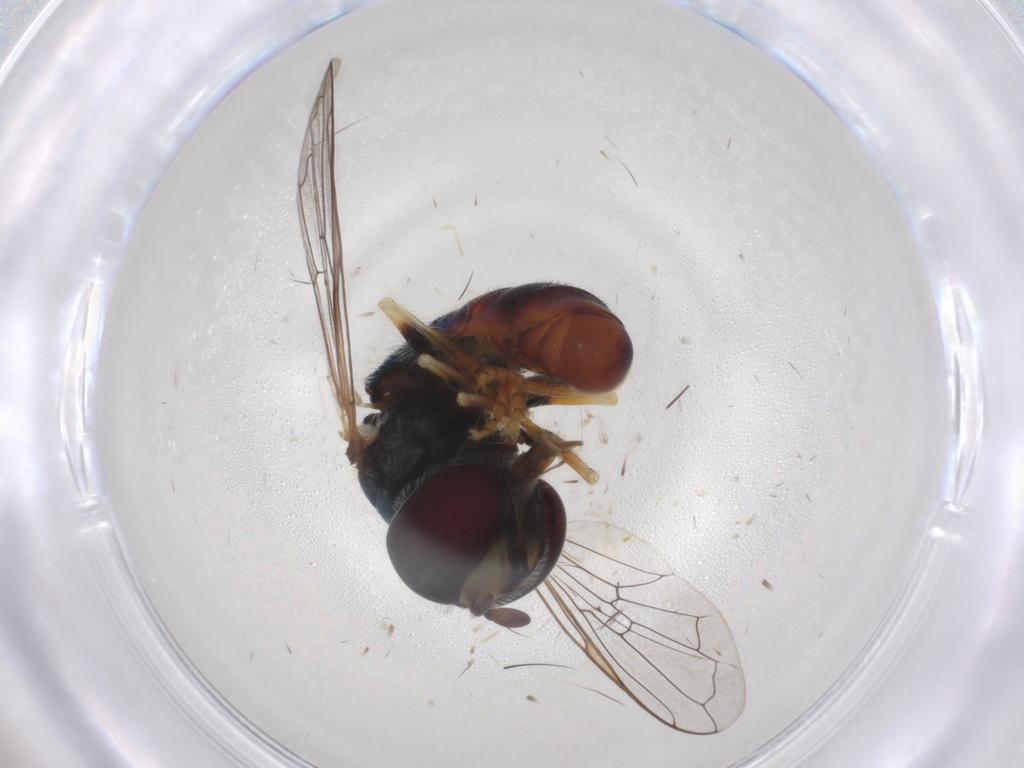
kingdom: Animalia
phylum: Arthropoda
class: Insecta
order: Diptera
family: Syrphidae
